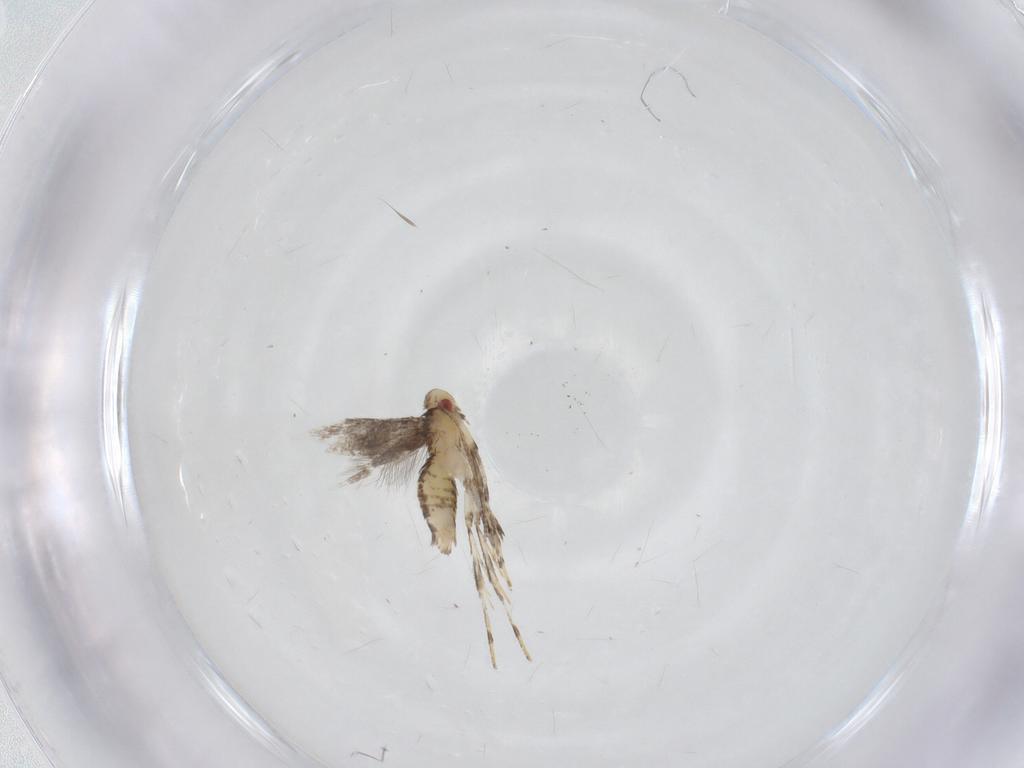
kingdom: Animalia
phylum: Arthropoda
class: Insecta
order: Lepidoptera
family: Gracillariidae
